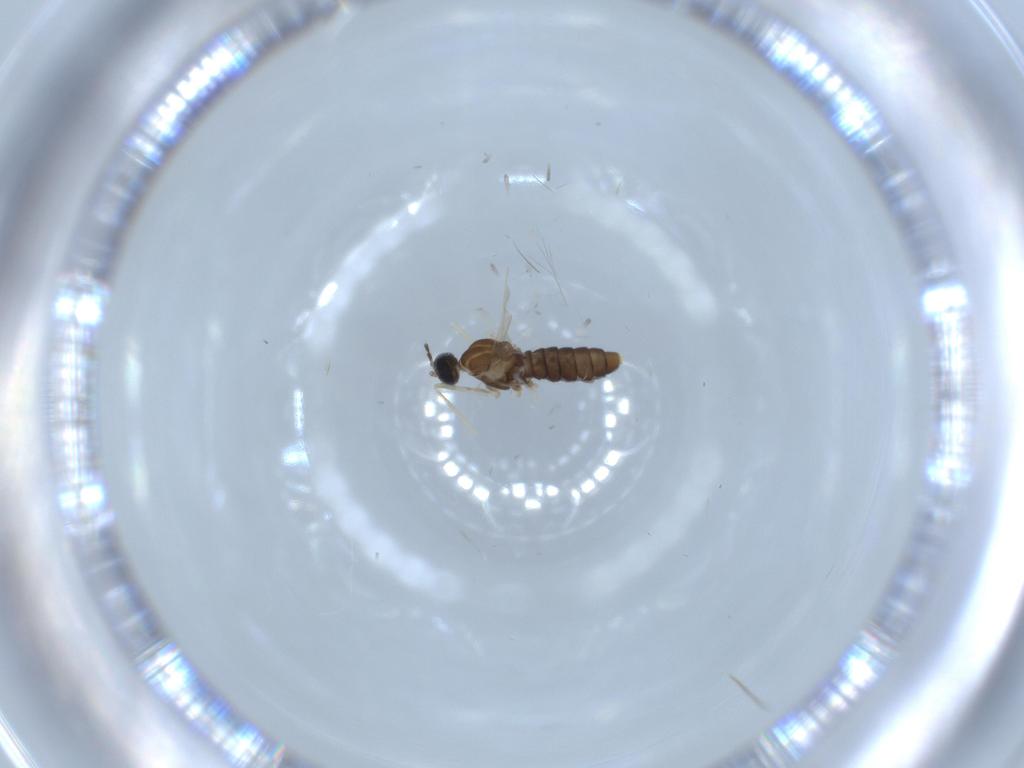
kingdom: Animalia
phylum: Arthropoda
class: Insecta
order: Diptera
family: Cecidomyiidae
